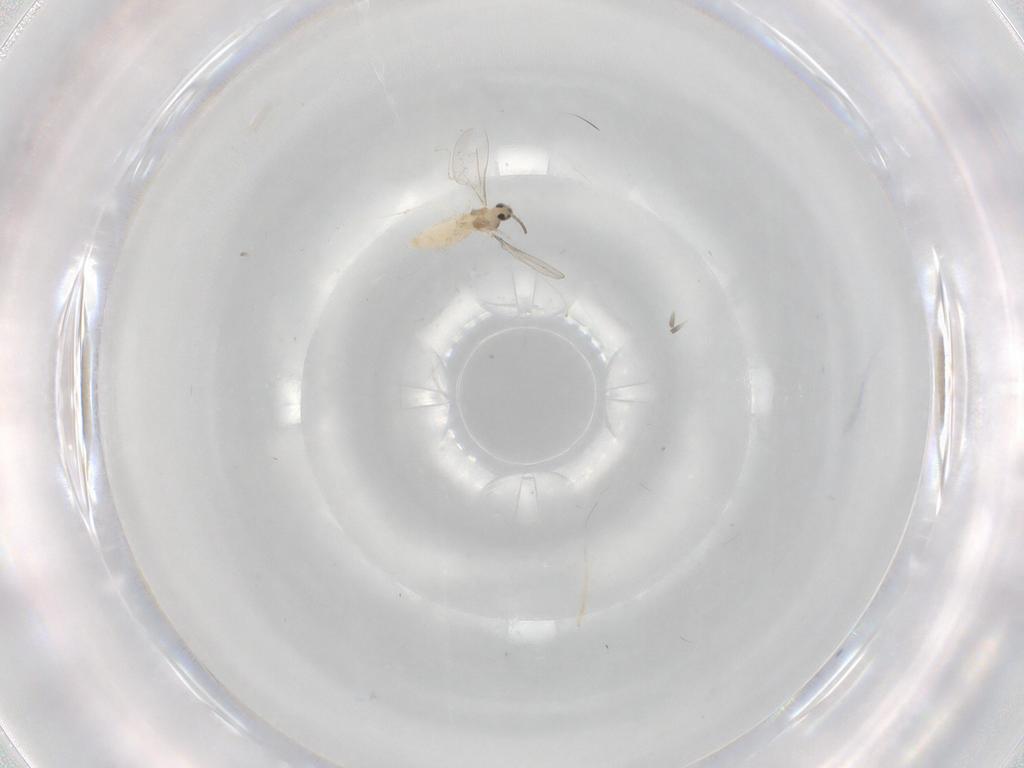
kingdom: Animalia
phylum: Arthropoda
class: Insecta
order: Diptera
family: Cecidomyiidae
